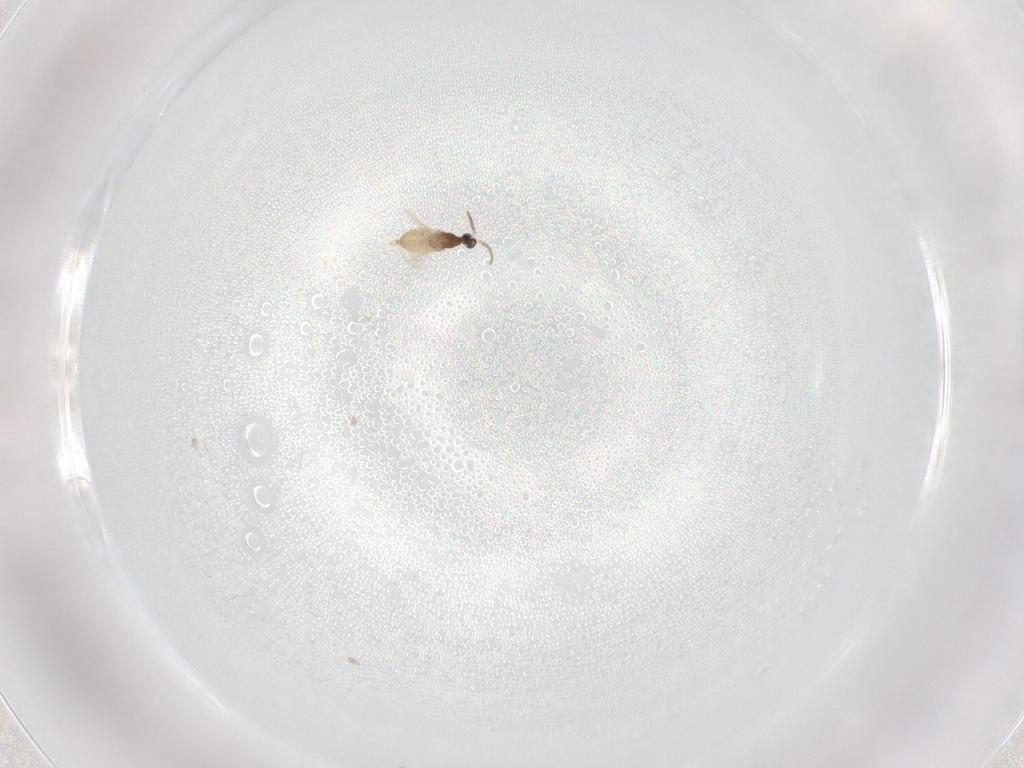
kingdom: Animalia
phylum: Arthropoda
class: Insecta
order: Diptera
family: Cecidomyiidae
